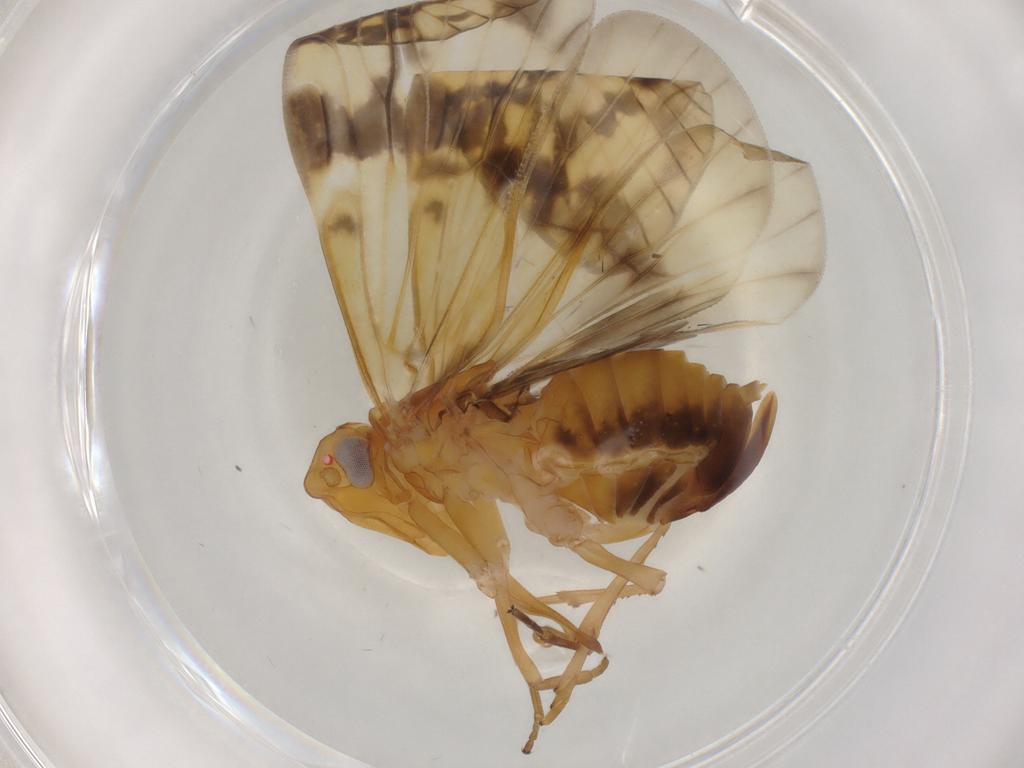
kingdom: Animalia
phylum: Arthropoda
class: Insecta
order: Hemiptera
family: Cixiidae
